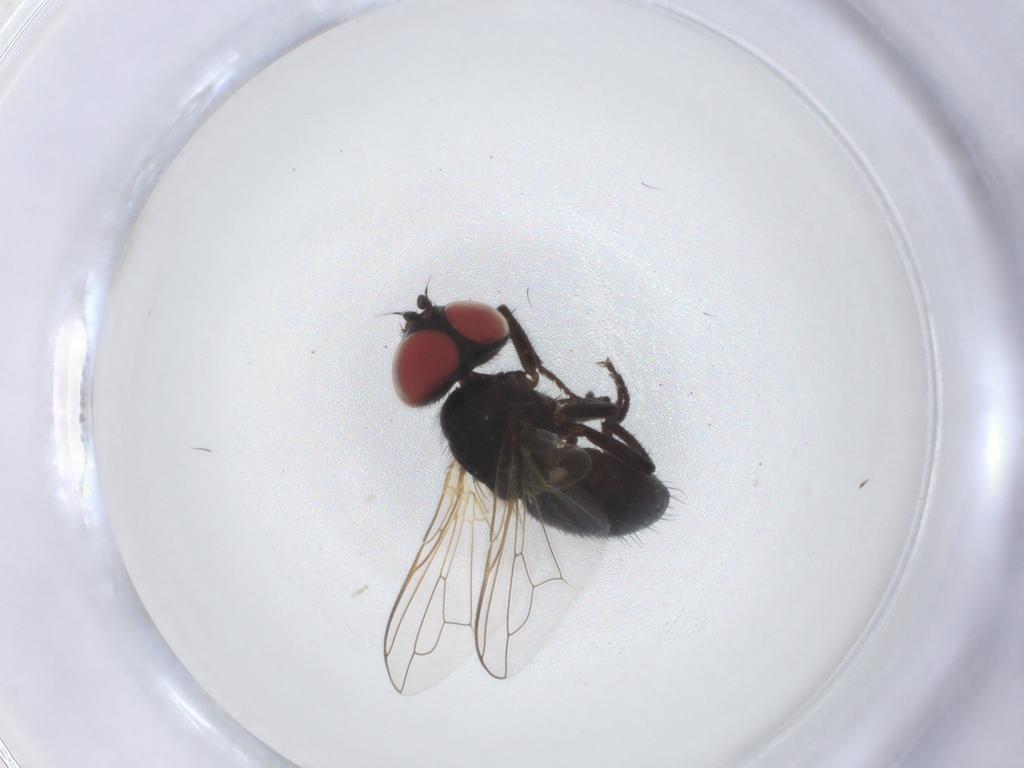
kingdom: Animalia
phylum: Arthropoda
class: Insecta
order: Diptera
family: Tachinidae
